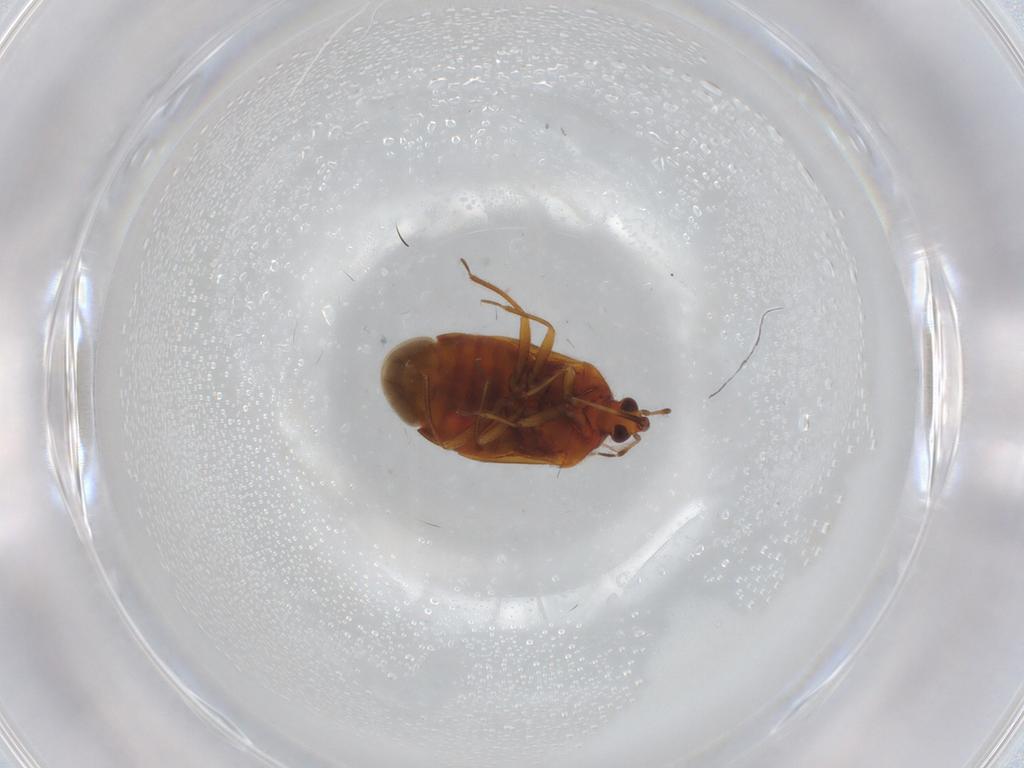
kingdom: Animalia
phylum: Arthropoda
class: Insecta
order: Hemiptera
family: Anthocoridae
